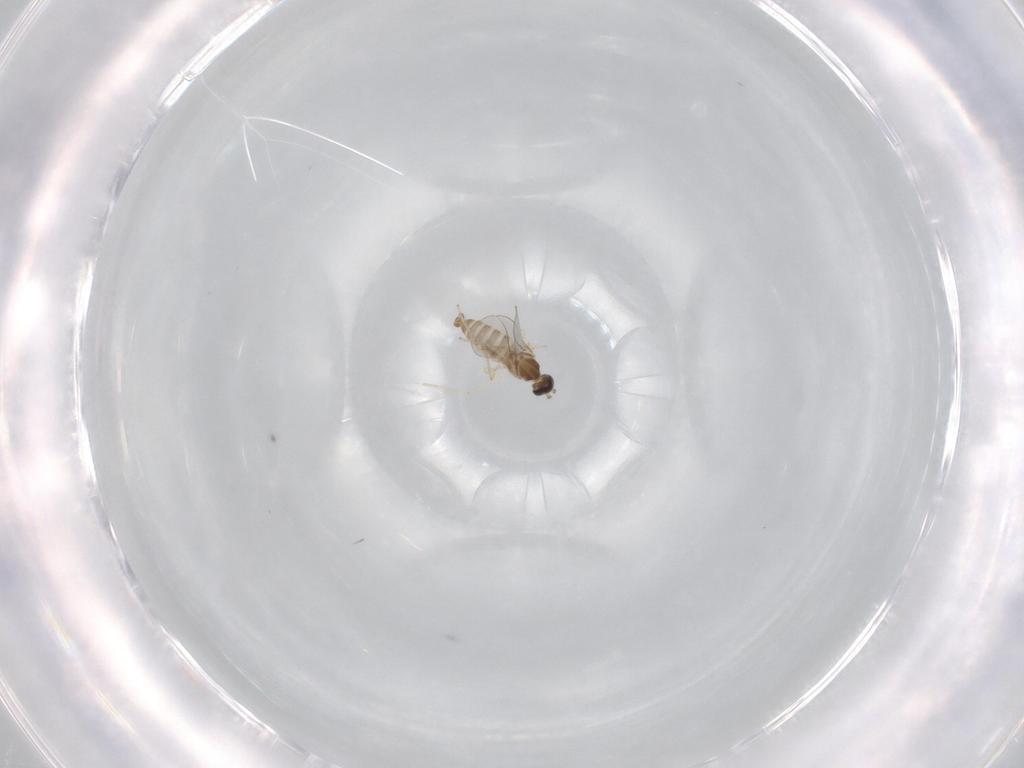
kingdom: Animalia
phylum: Arthropoda
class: Insecta
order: Diptera
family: Cecidomyiidae
